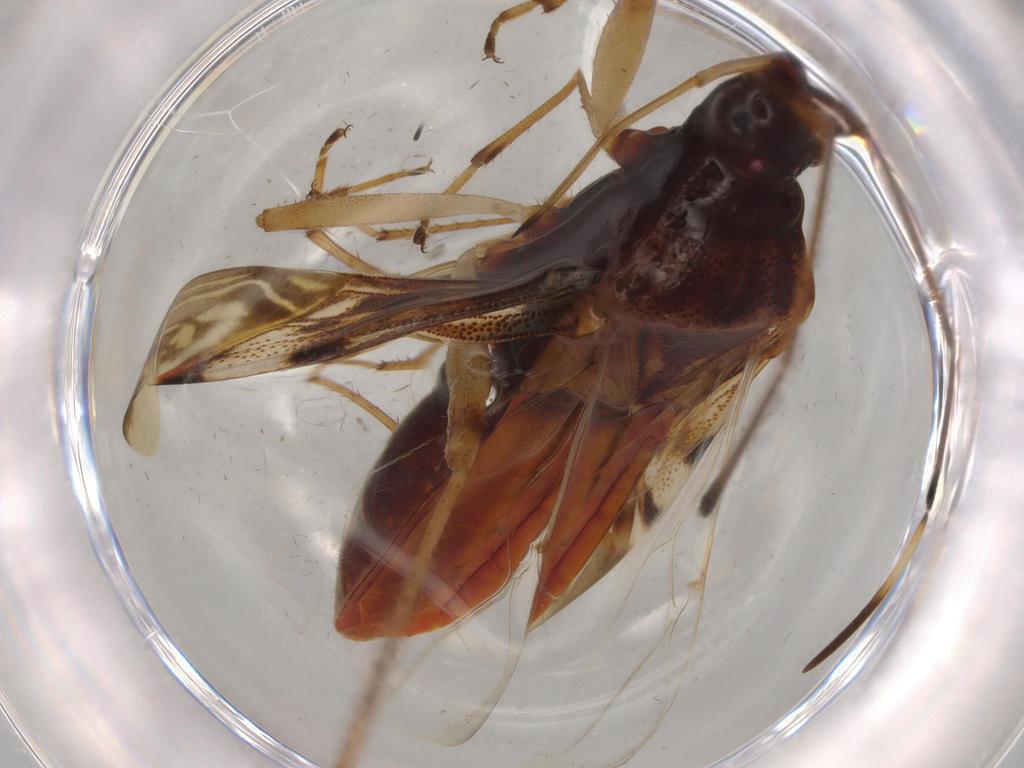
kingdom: Animalia
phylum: Arthropoda
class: Insecta
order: Hemiptera
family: Rhyparochromidae
